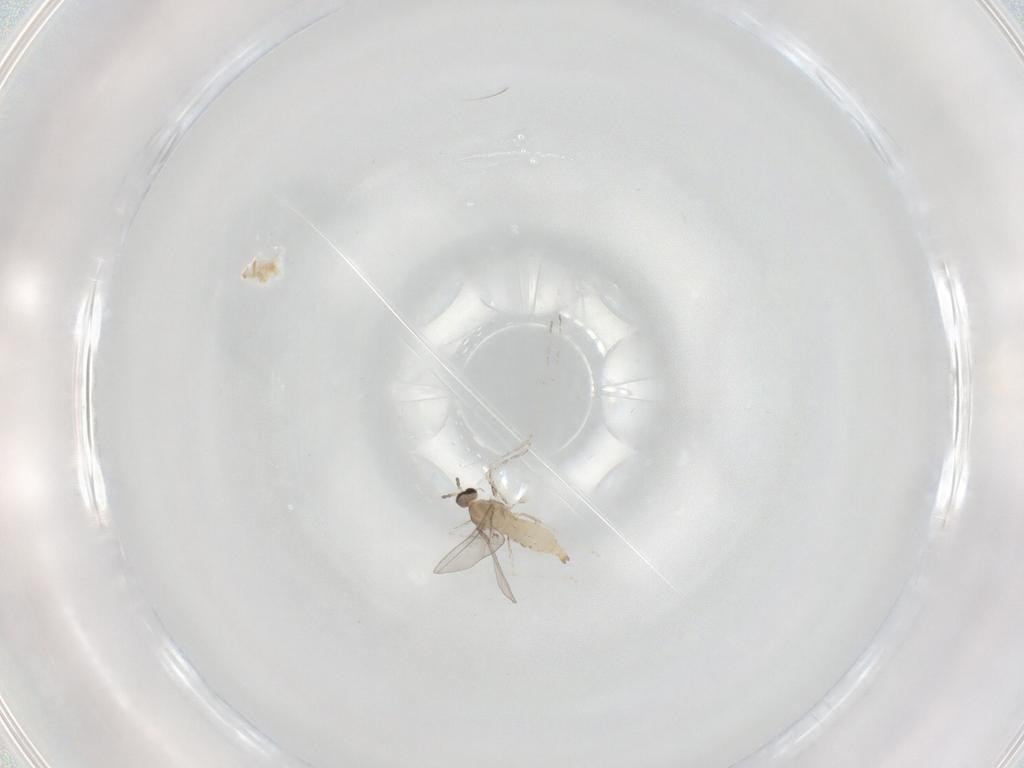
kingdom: Animalia
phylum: Arthropoda
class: Insecta
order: Diptera
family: Cecidomyiidae
